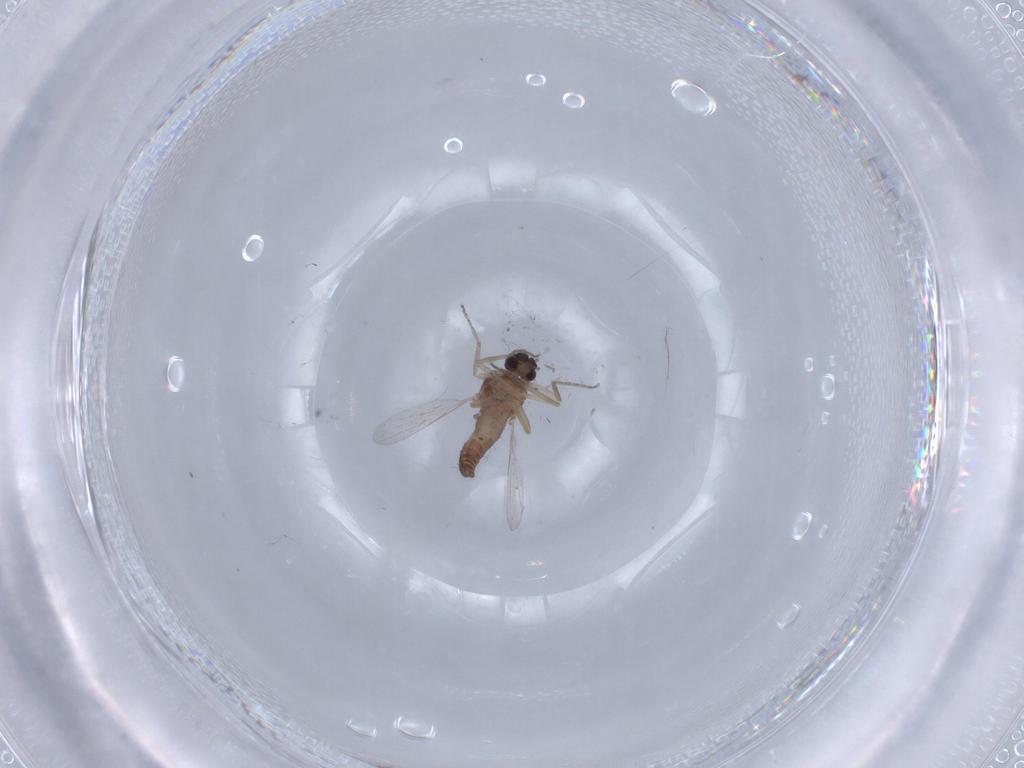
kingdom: Animalia
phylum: Arthropoda
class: Insecta
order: Diptera
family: Ceratopogonidae
